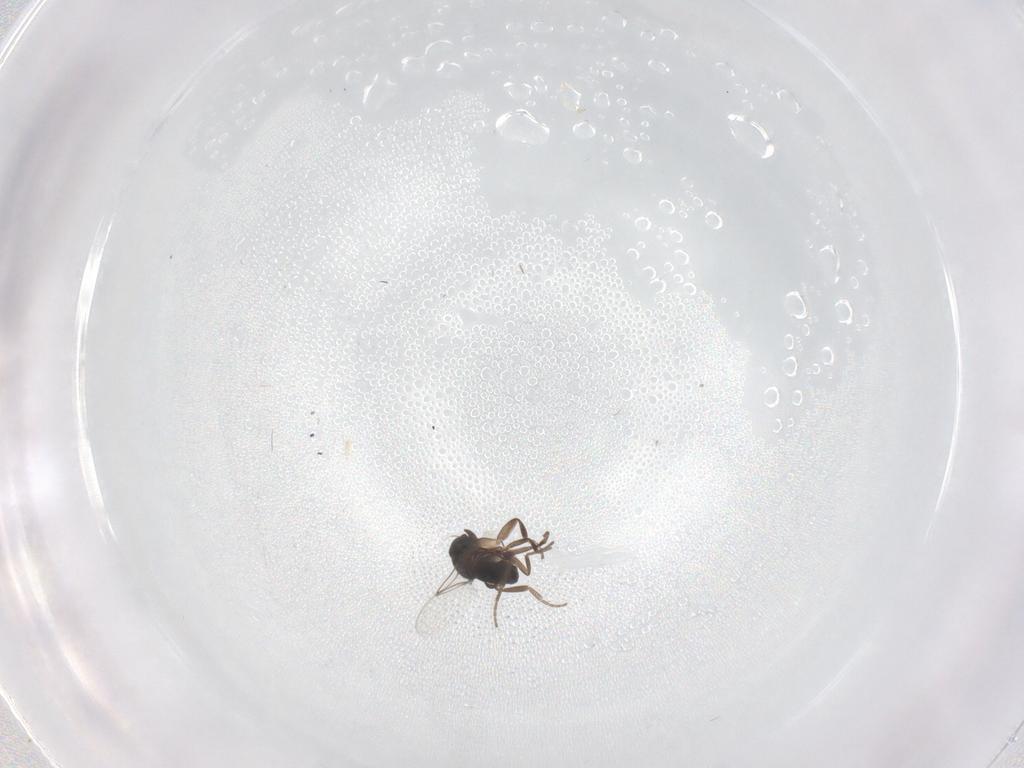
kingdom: Animalia
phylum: Arthropoda
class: Insecta
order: Diptera
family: Phoridae
